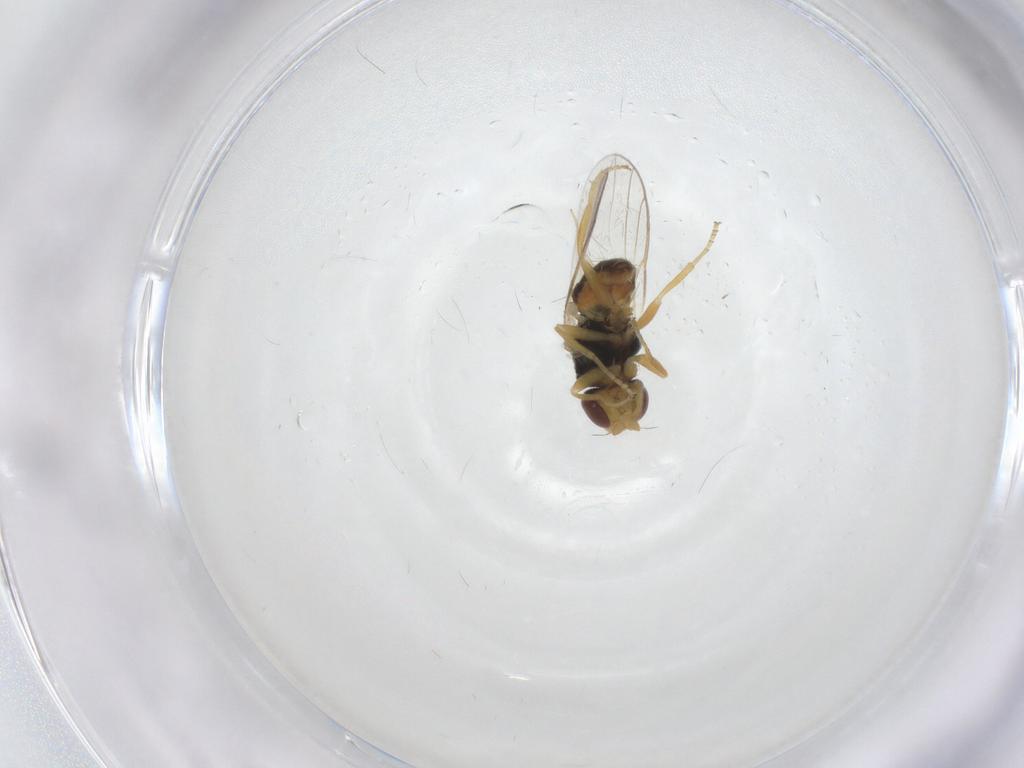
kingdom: Animalia
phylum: Arthropoda
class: Insecta
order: Diptera
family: Chloropidae
